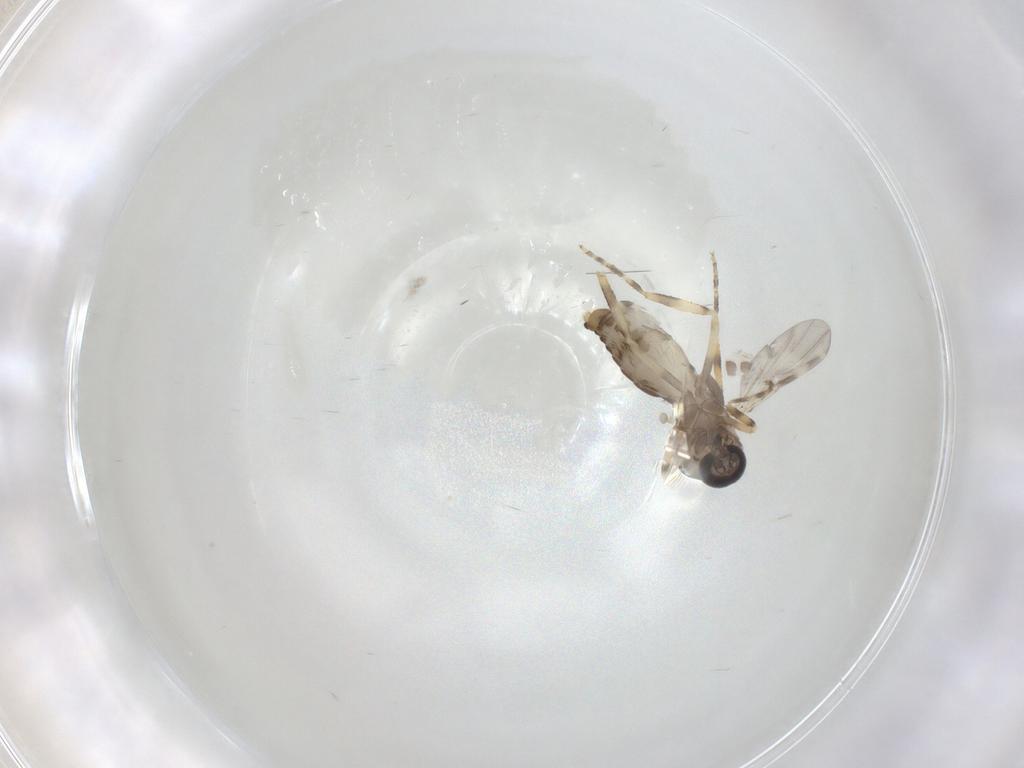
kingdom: Animalia
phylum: Arthropoda
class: Insecta
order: Diptera
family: Ceratopogonidae
